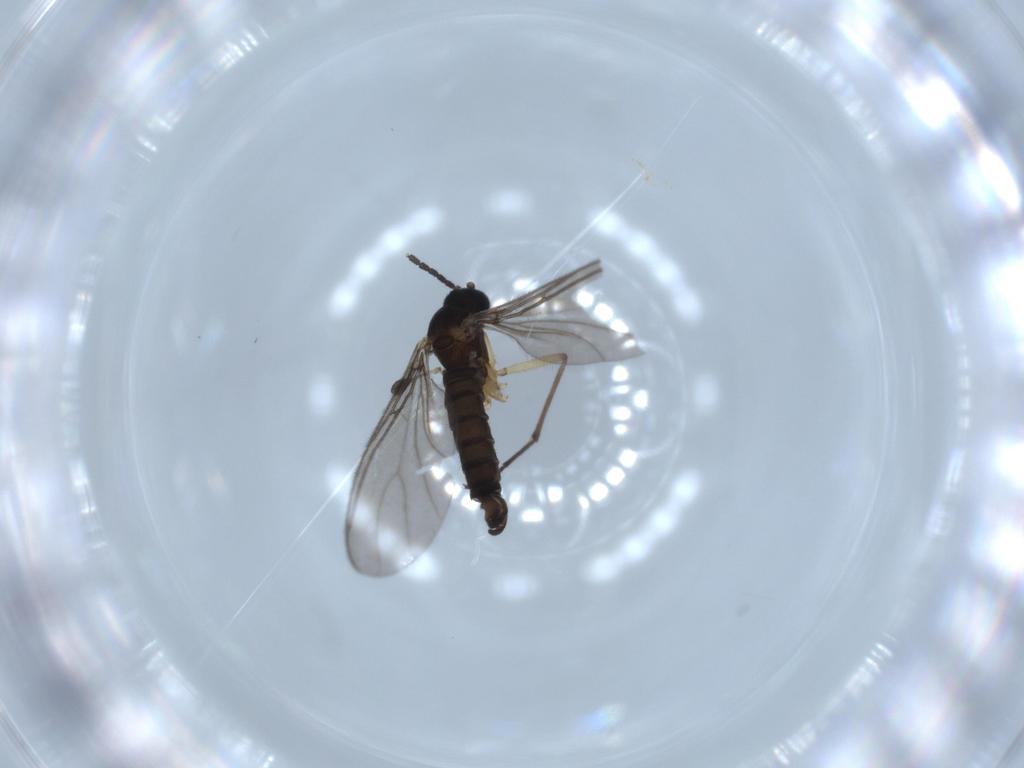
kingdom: Animalia
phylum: Arthropoda
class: Insecta
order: Diptera
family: Sciaridae
